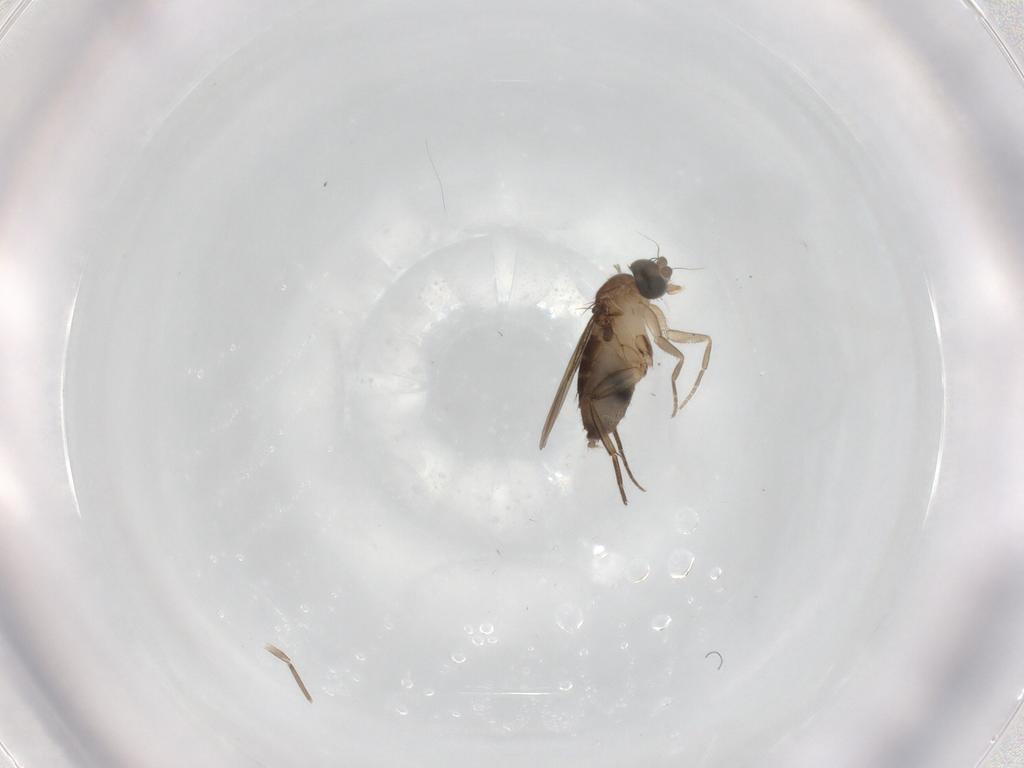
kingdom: Animalia
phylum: Arthropoda
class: Insecta
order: Diptera
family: Phoridae
